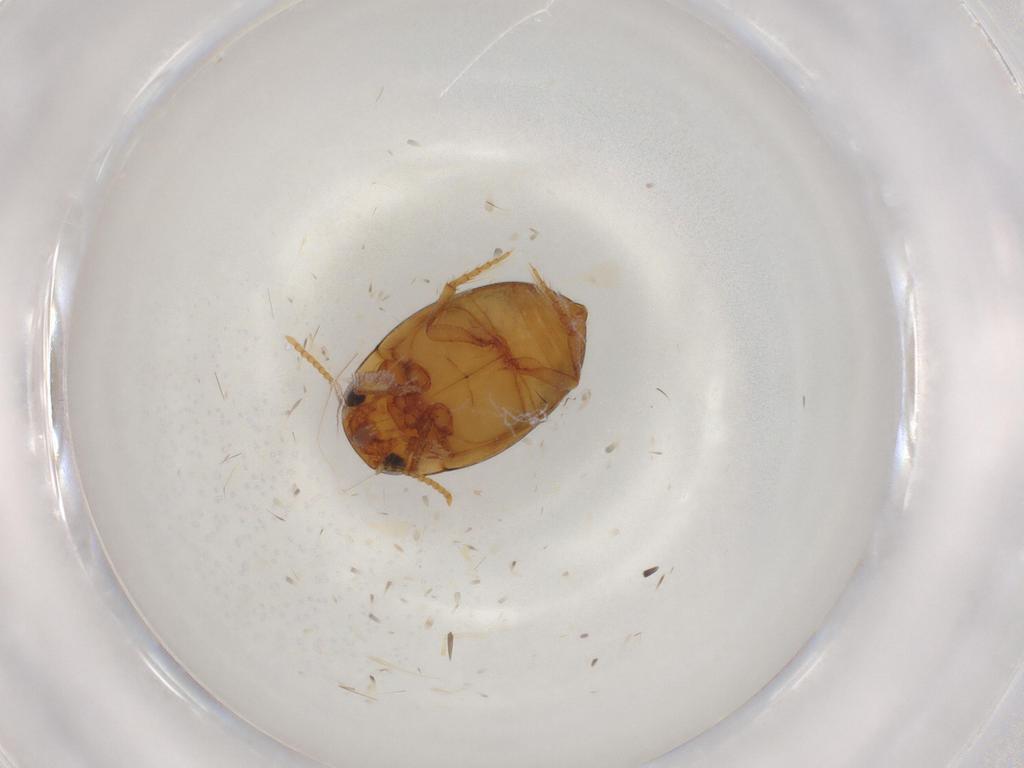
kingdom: Animalia
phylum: Arthropoda
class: Insecta
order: Coleoptera
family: Dytiscidae
